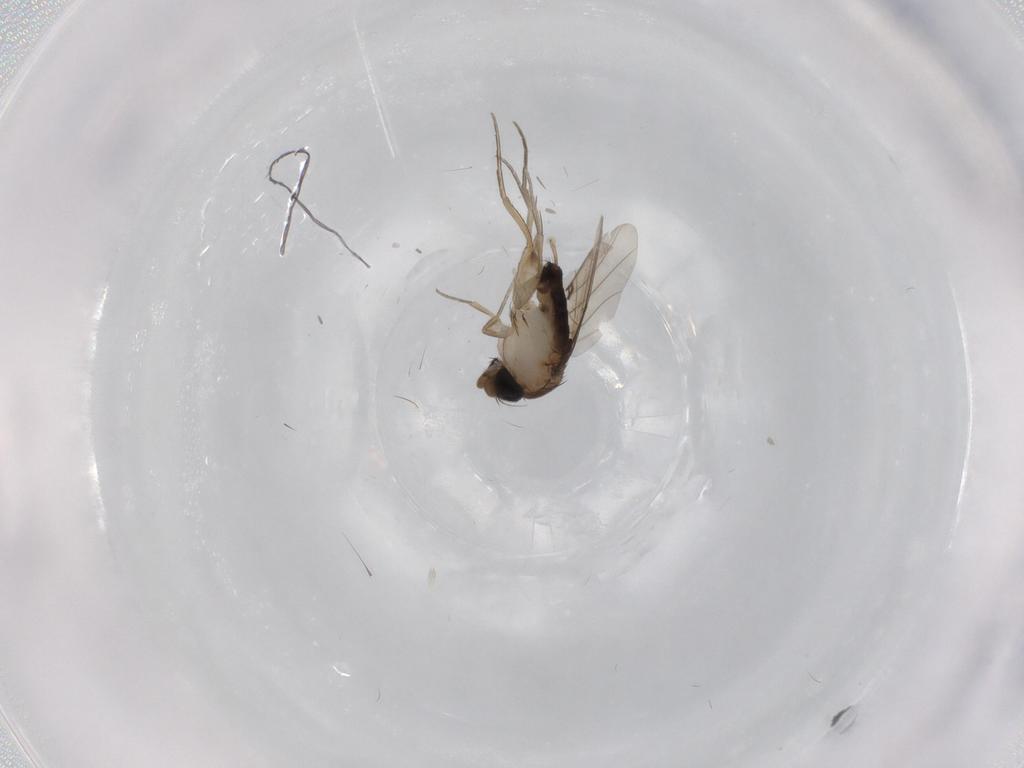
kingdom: Animalia
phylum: Arthropoda
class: Insecta
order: Diptera
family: Phoridae
